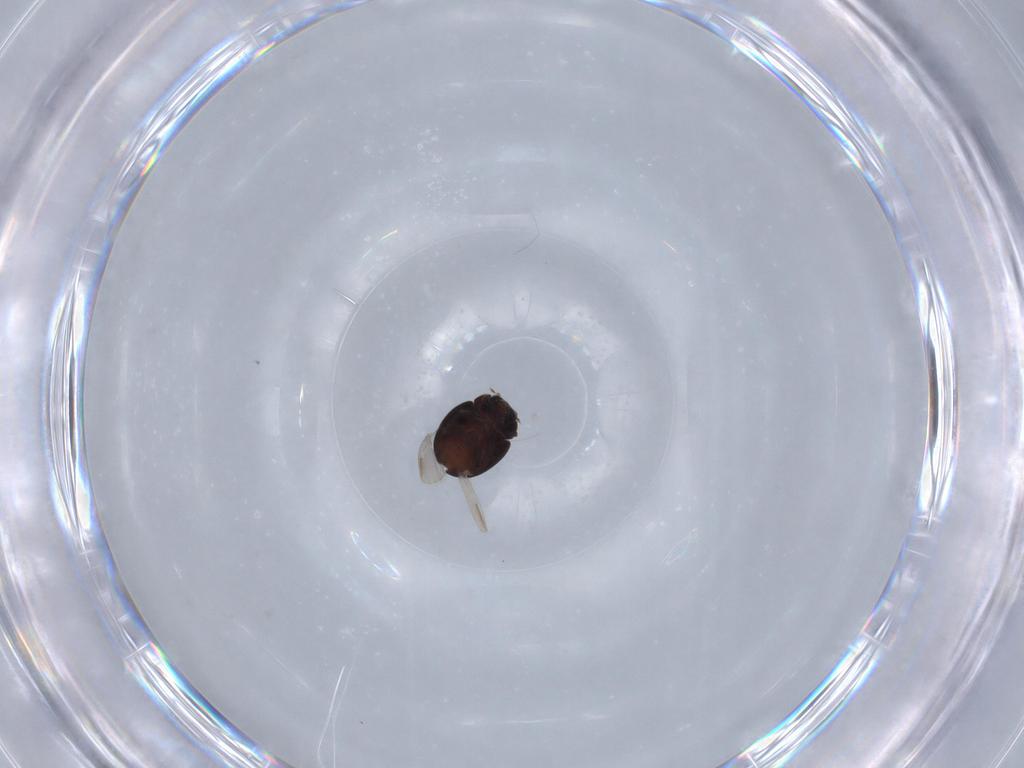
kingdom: Animalia
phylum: Arthropoda
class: Insecta
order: Coleoptera
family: Coccinellidae
